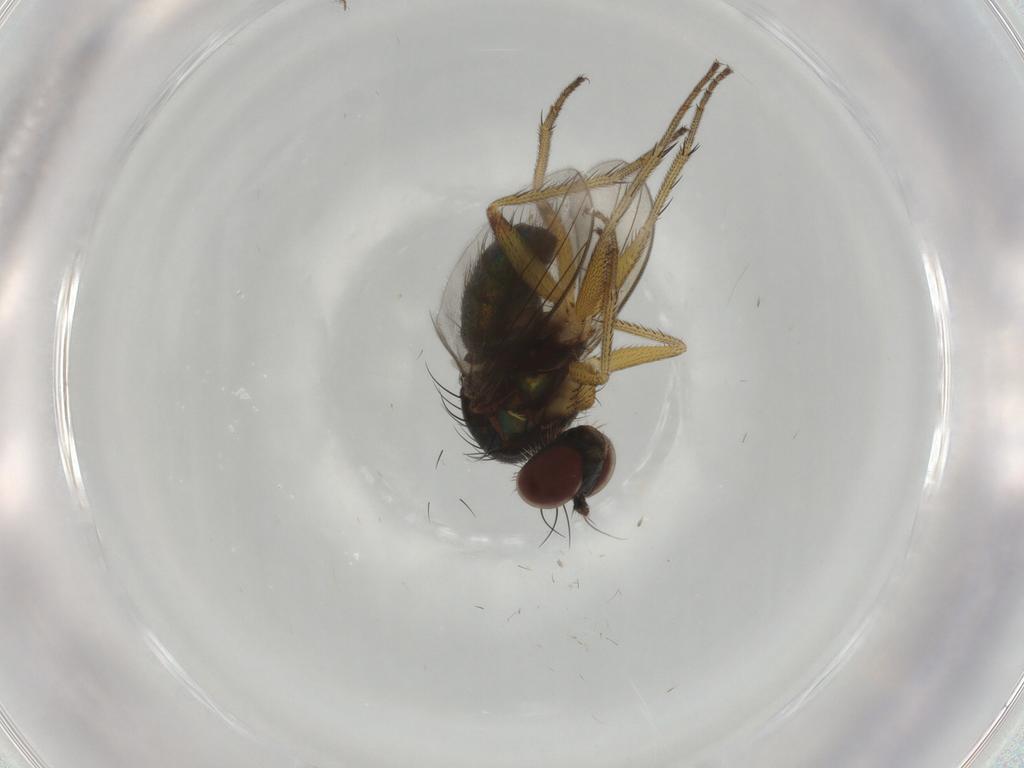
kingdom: Animalia
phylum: Arthropoda
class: Insecta
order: Diptera
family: Dolichopodidae
